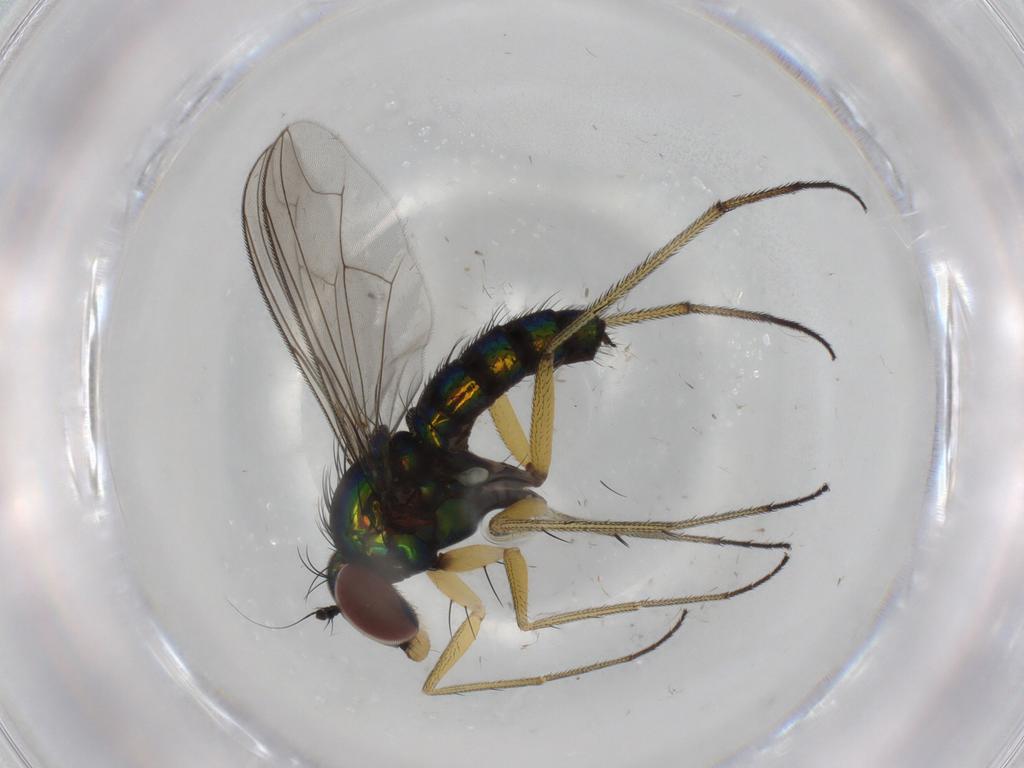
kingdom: Animalia
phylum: Arthropoda
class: Insecta
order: Diptera
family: Dolichopodidae
